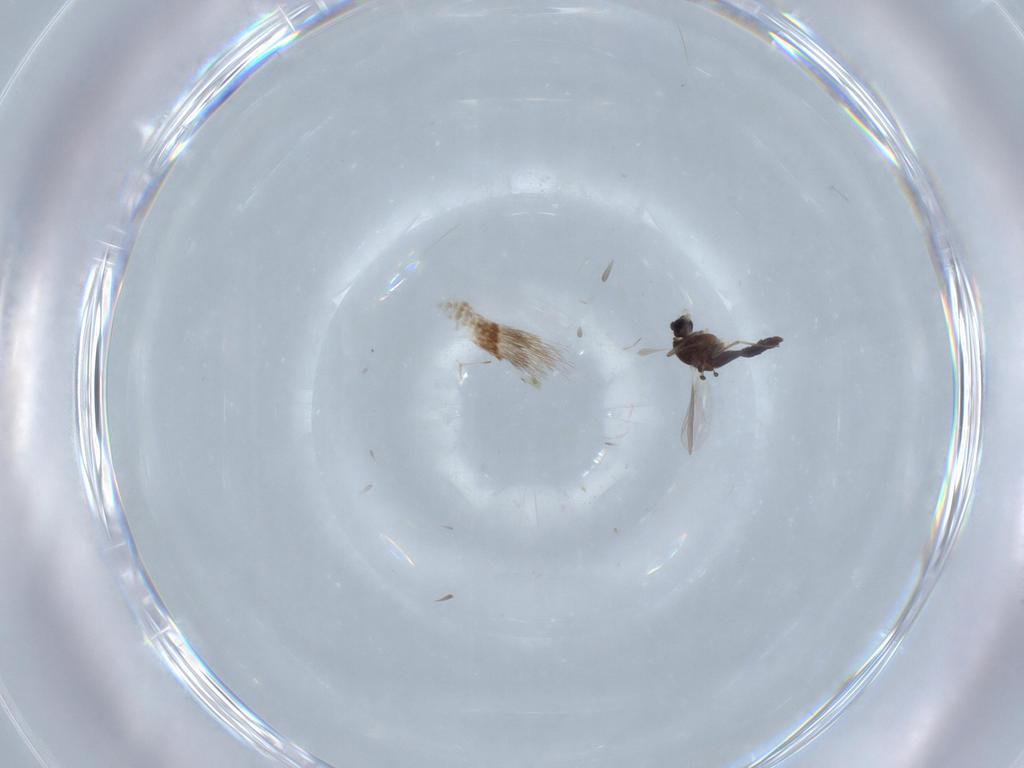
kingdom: Animalia
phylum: Arthropoda
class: Insecta
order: Diptera
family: Chironomidae
